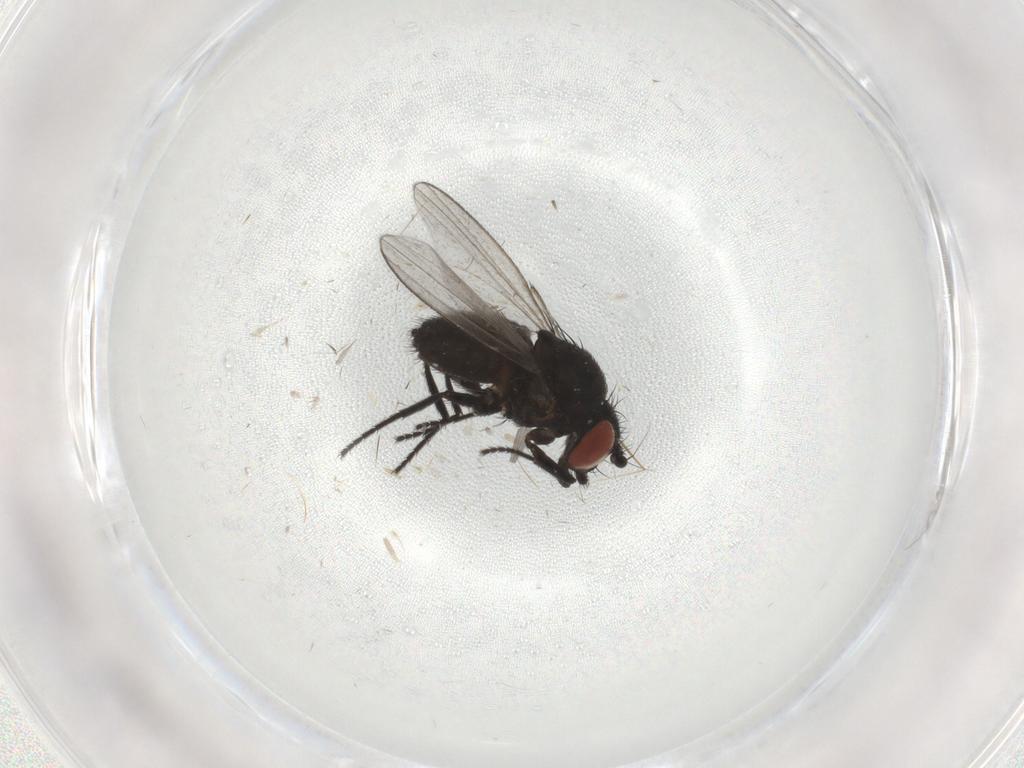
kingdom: Animalia
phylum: Arthropoda
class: Insecta
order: Diptera
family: Milichiidae
